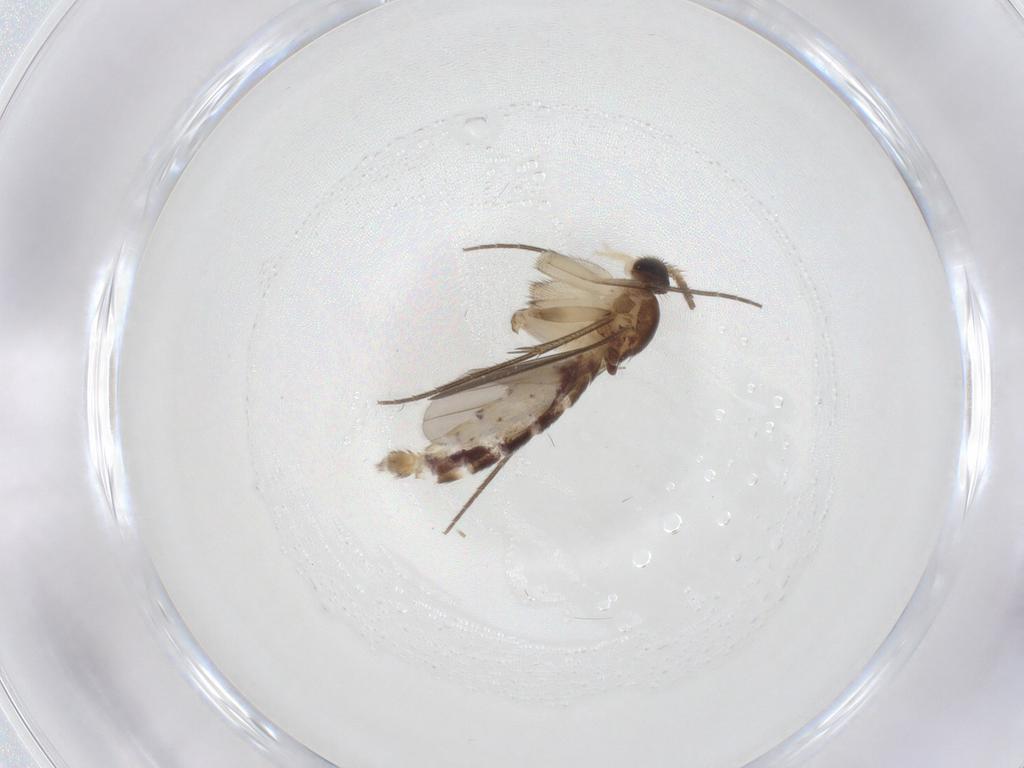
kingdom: Animalia
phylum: Arthropoda
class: Insecta
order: Diptera
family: Mycetophilidae
